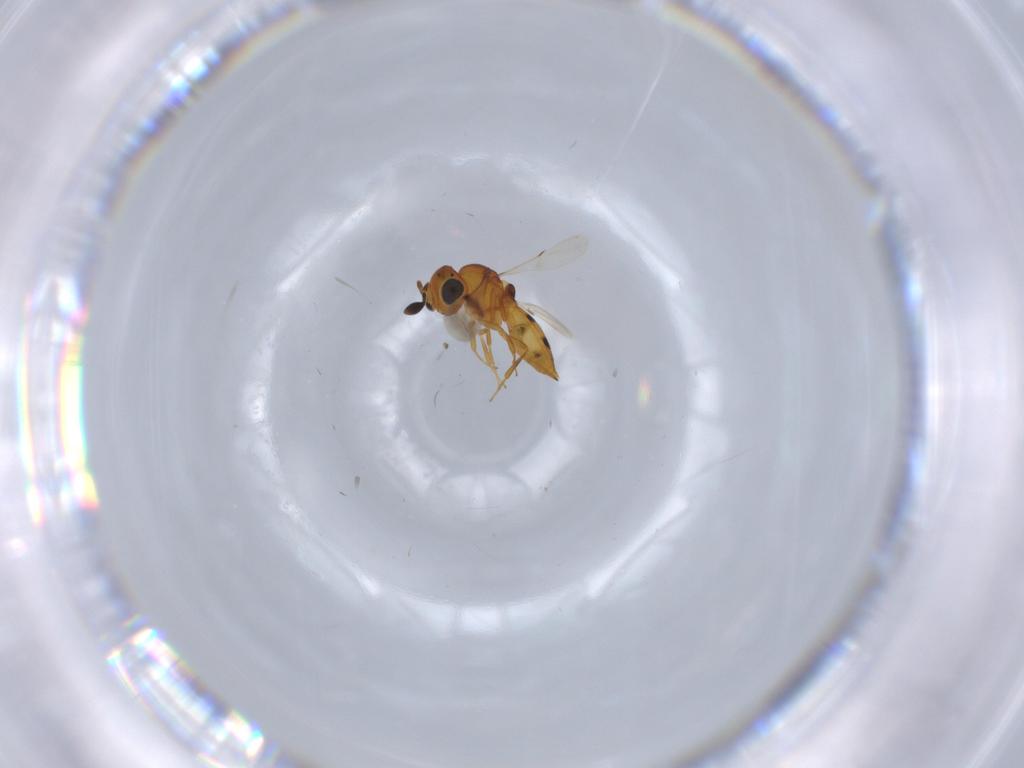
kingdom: Animalia
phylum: Arthropoda
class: Insecta
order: Hymenoptera
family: Scelionidae
